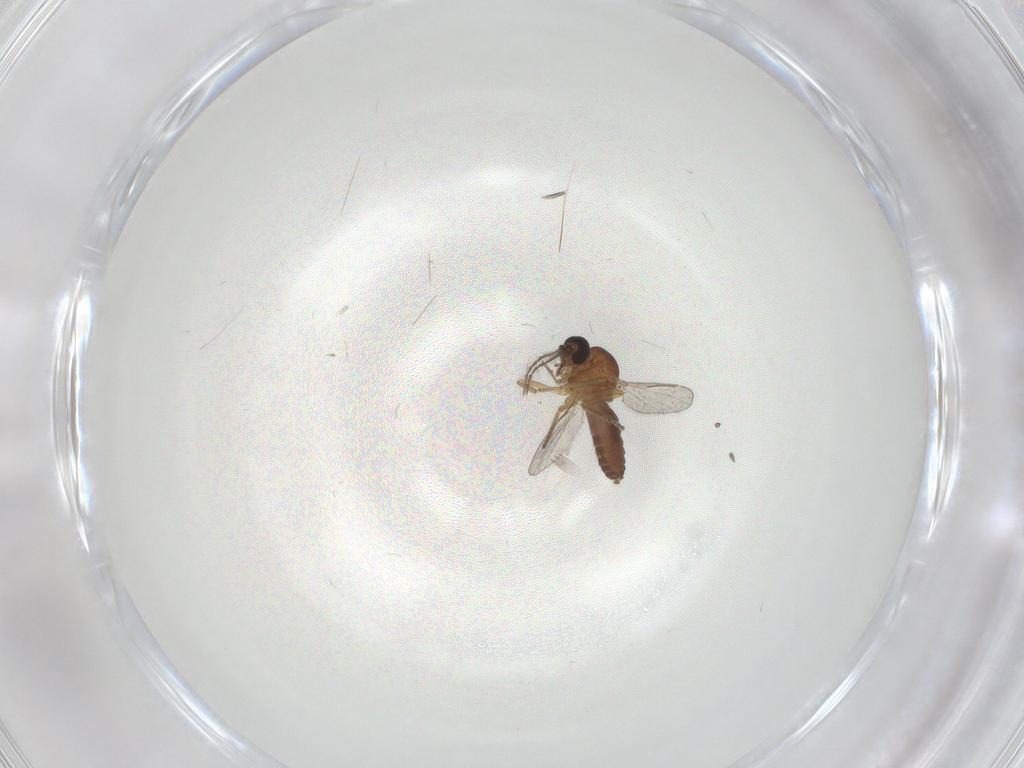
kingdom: Animalia
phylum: Arthropoda
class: Insecta
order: Diptera
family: Ceratopogonidae
